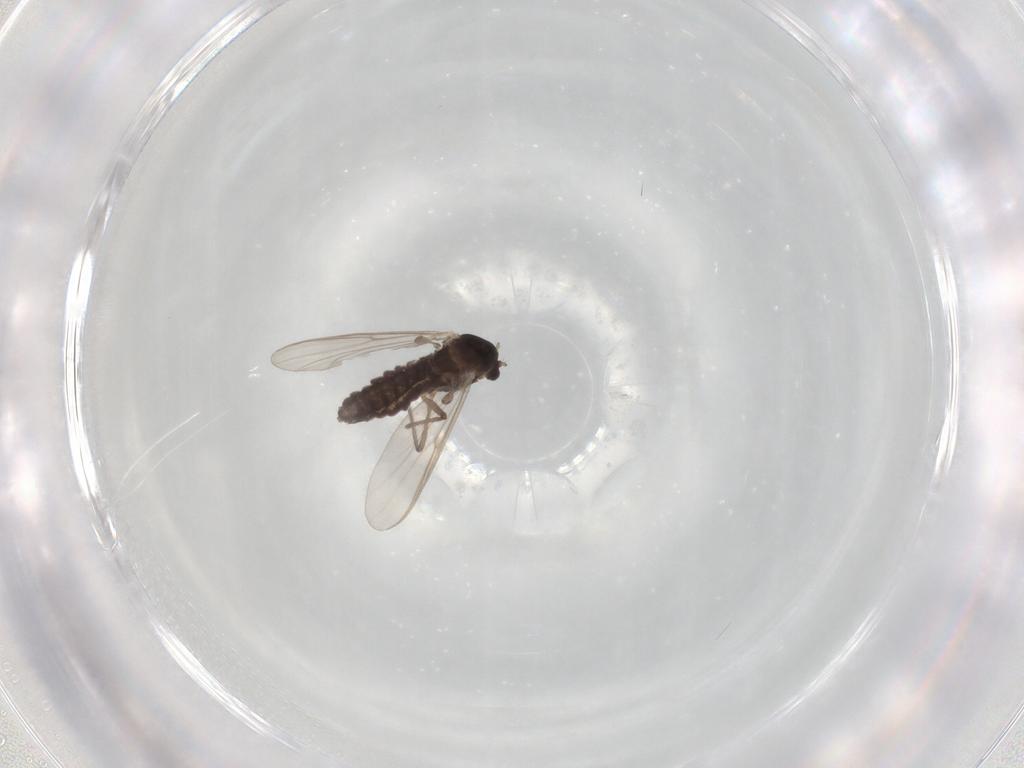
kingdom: Animalia
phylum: Arthropoda
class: Insecta
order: Diptera
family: Chironomidae
